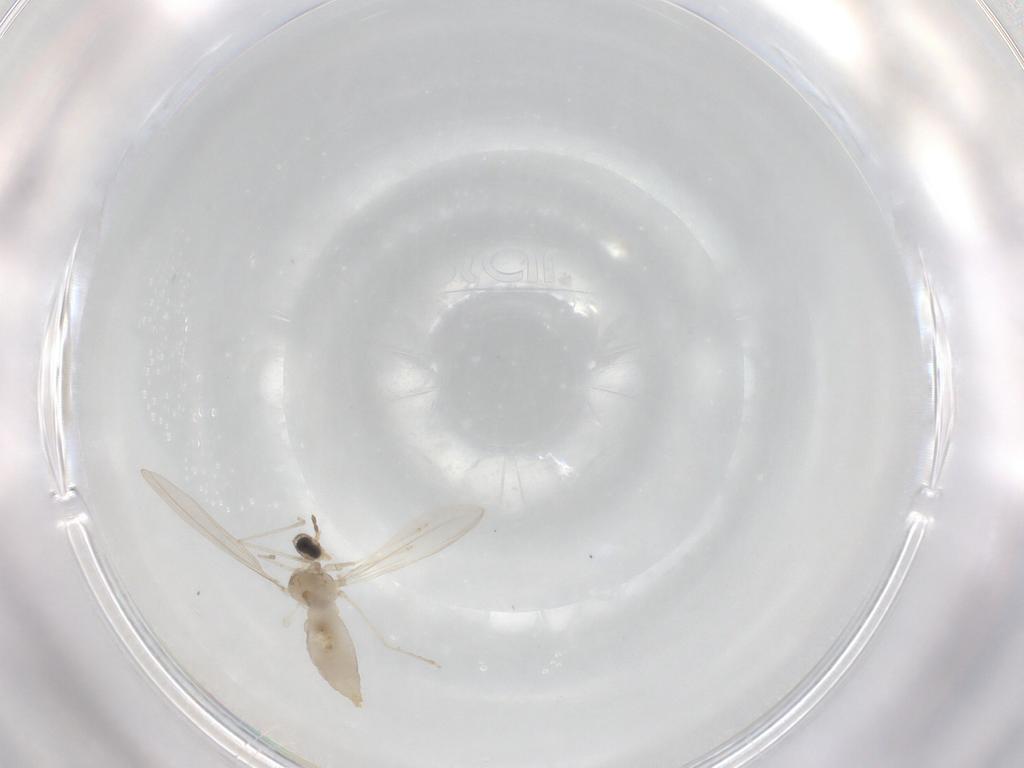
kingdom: Animalia
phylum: Arthropoda
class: Insecta
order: Diptera
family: Cecidomyiidae
